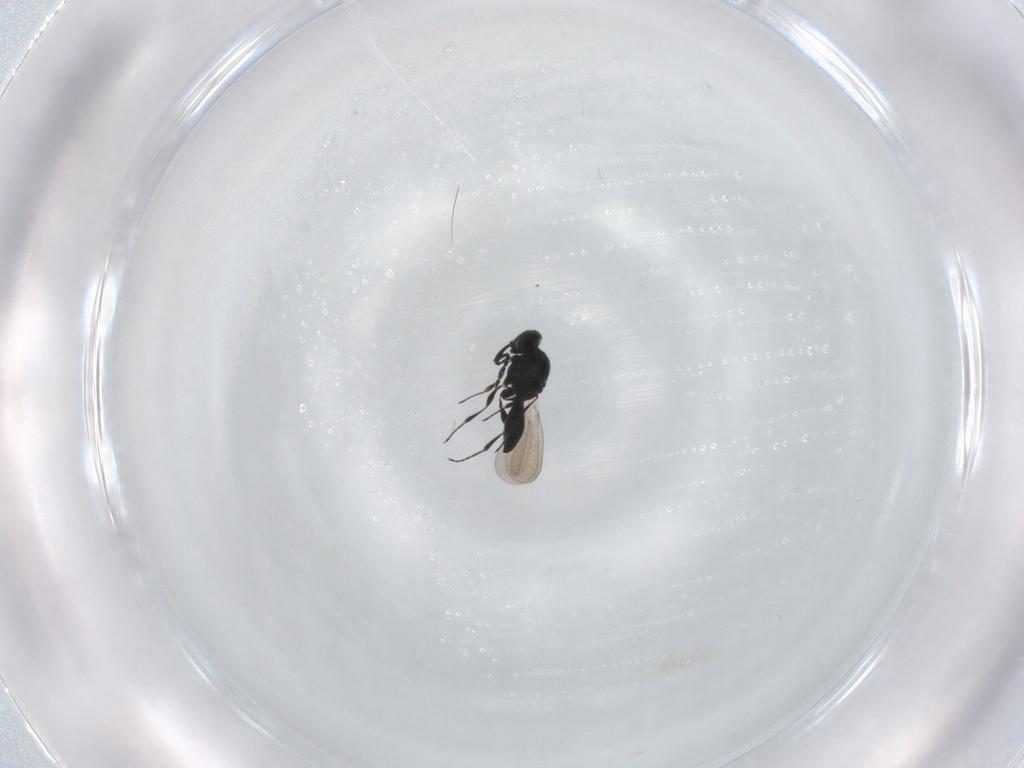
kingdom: Animalia
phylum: Arthropoda
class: Insecta
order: Hymenoptera
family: Platygastridae
